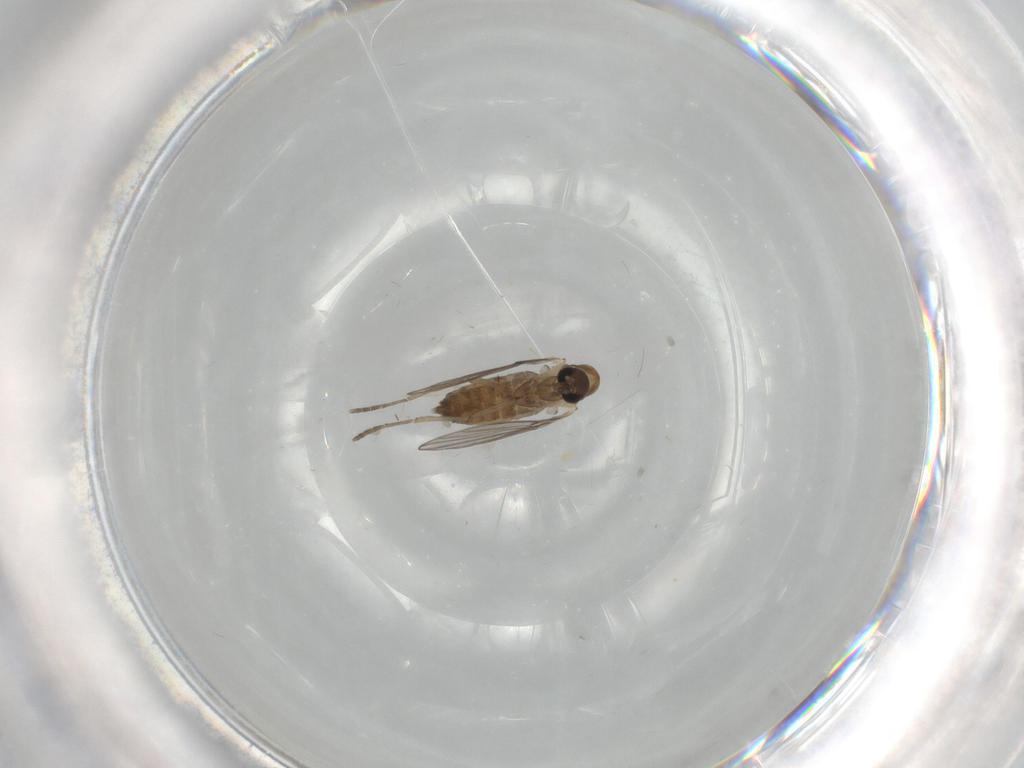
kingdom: Animalia
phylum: Arthropoda
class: Insecta
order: Diptera
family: Psychodidae
